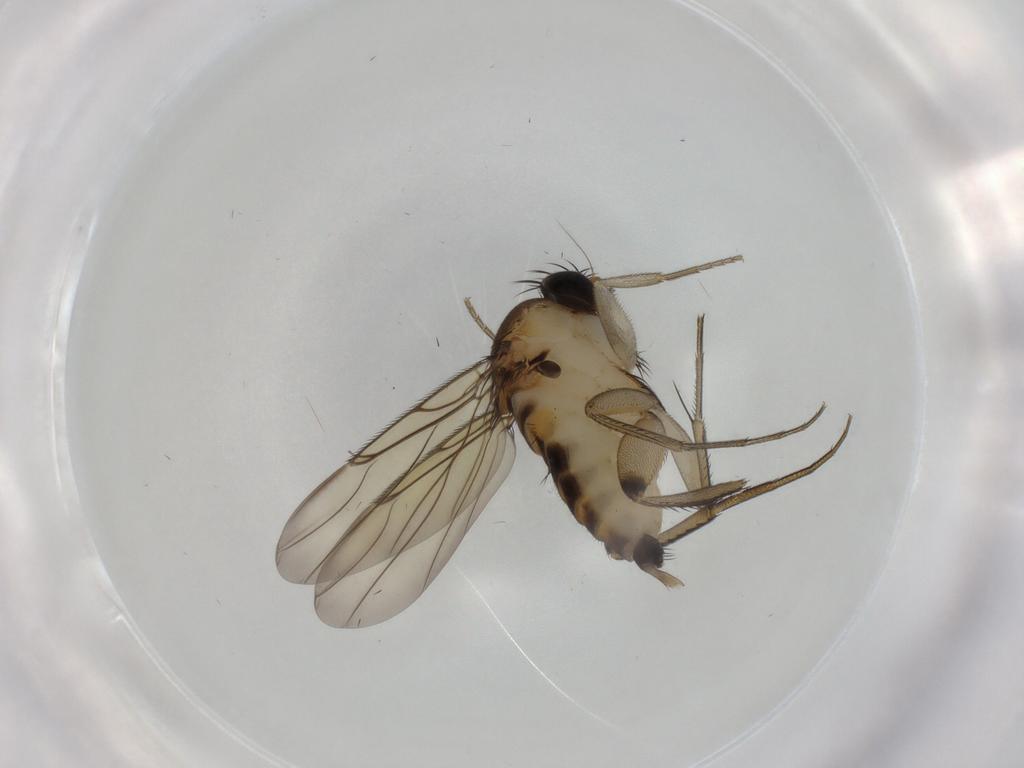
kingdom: Animalia
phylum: Arthropoda
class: Insecta
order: Diptera
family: Phoridae
